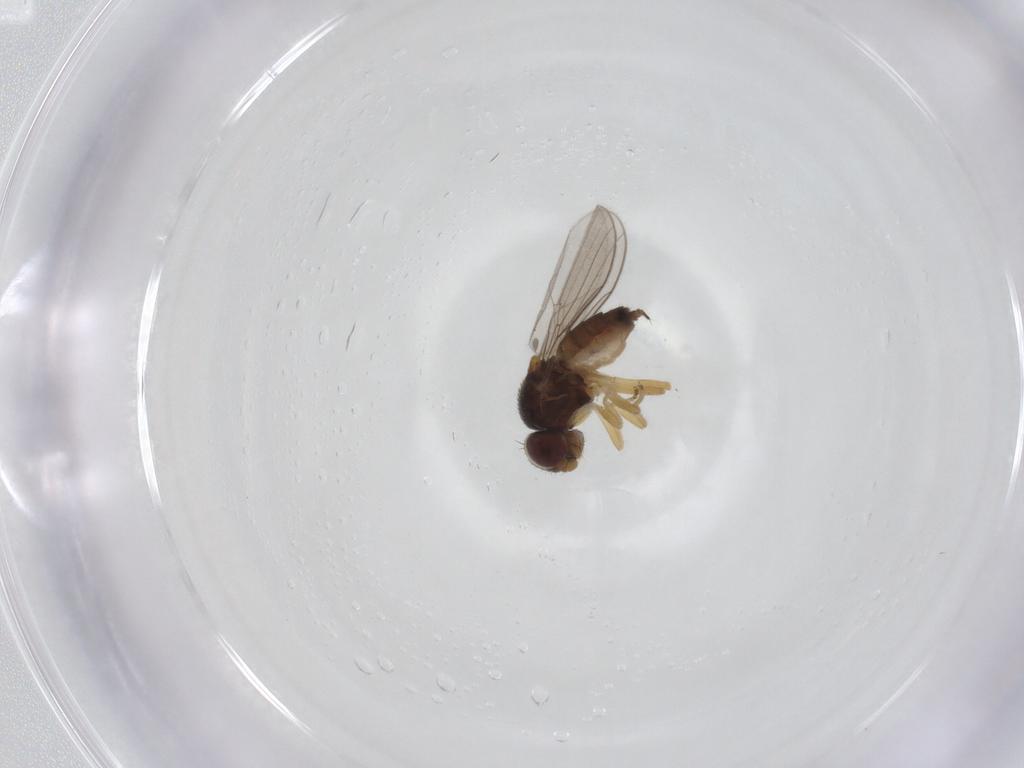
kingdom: Animalia
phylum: Arthropoda
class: Insecta
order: Diptera
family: Chloropidae
